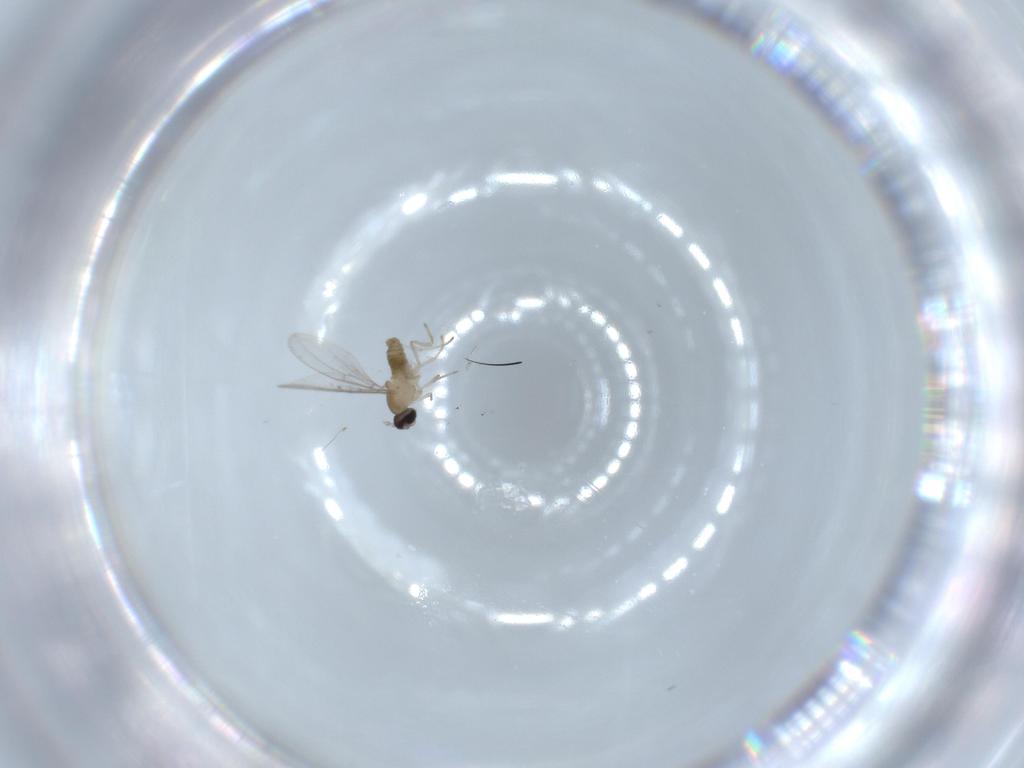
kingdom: Animalia
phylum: Arthropoda
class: Insecta
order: Diptera
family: Cecidomyiidae
